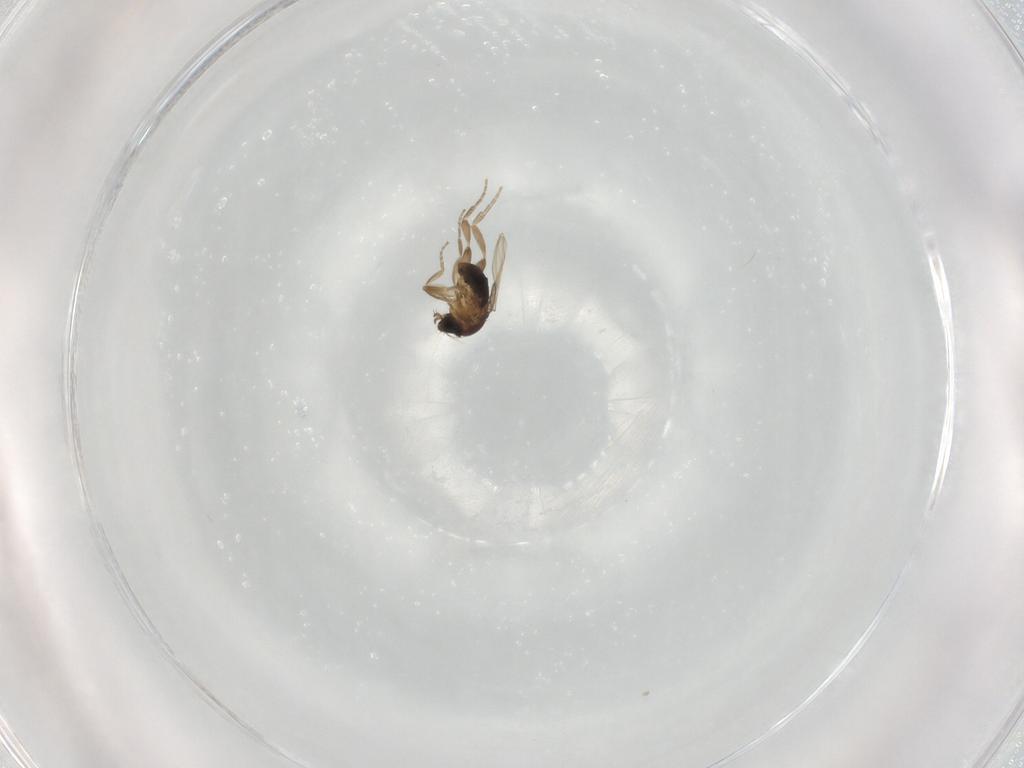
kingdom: Animalia
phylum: Arthropoda
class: Insecta
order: Diptera
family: Phoridae
